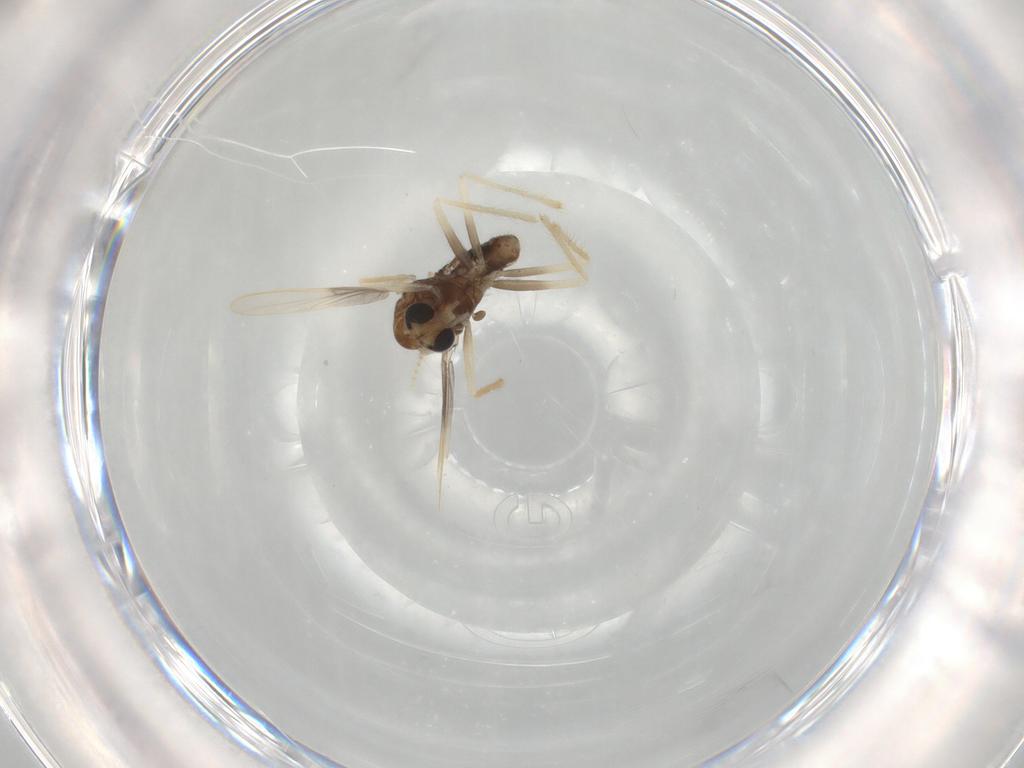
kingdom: Animalia
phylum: Arthropoda
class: Insecta
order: Diptera
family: Chironomidae
